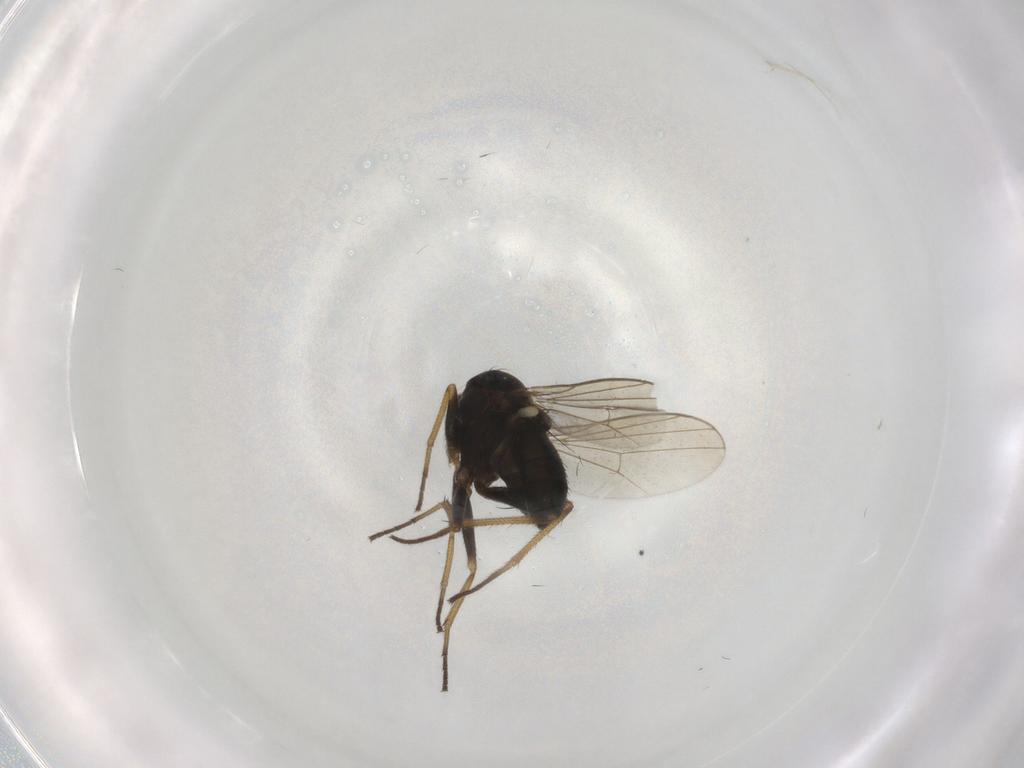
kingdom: Animalia
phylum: Arthropoda
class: Insecta
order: Diptera
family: Dolichopodidae
